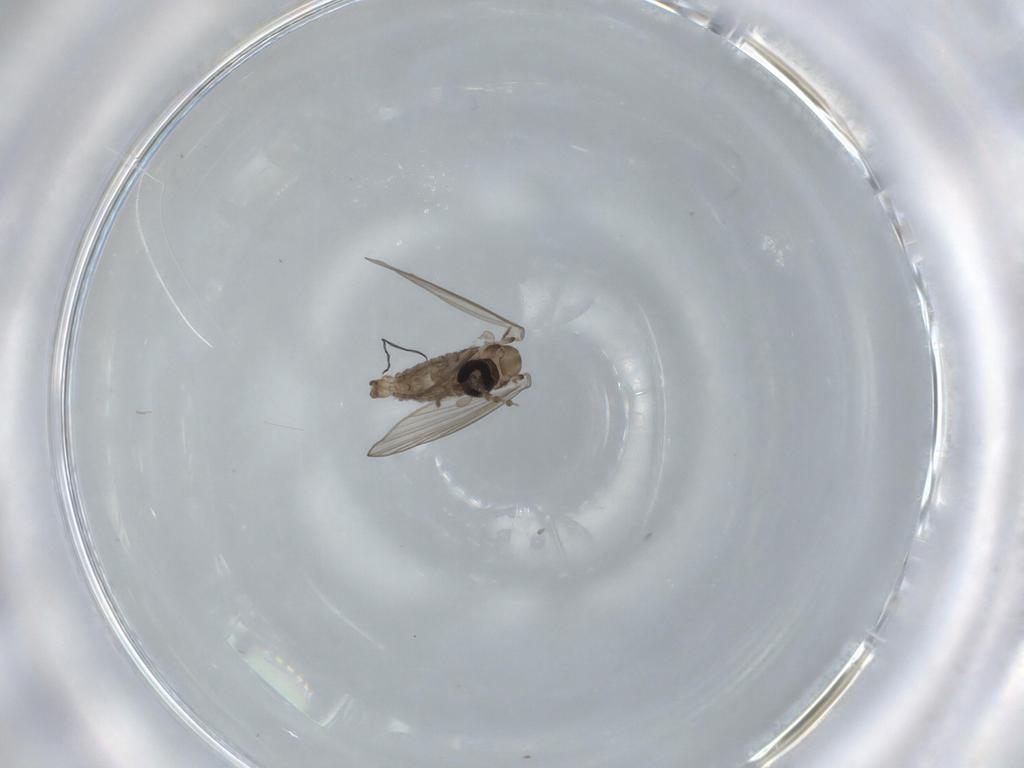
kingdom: Animalia
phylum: Arthropoda
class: Insecta
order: Diptera
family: Psychodidae
